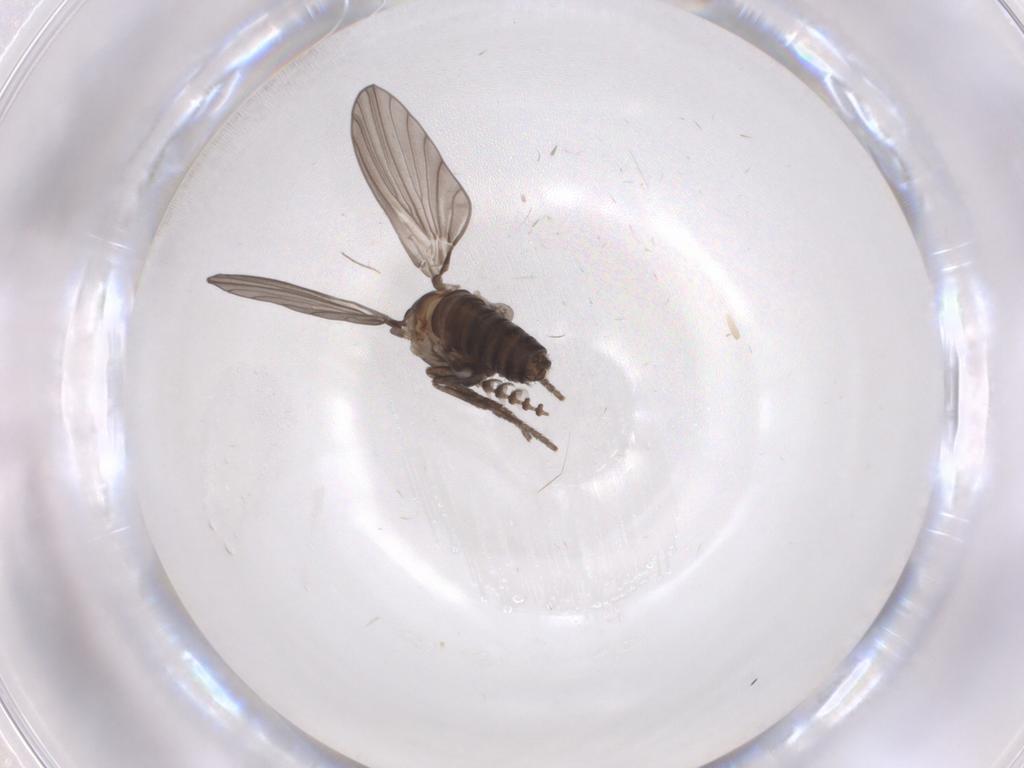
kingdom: Animalia
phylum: Arthropoda
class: Insecta
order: Diptera
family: Psychodidae
